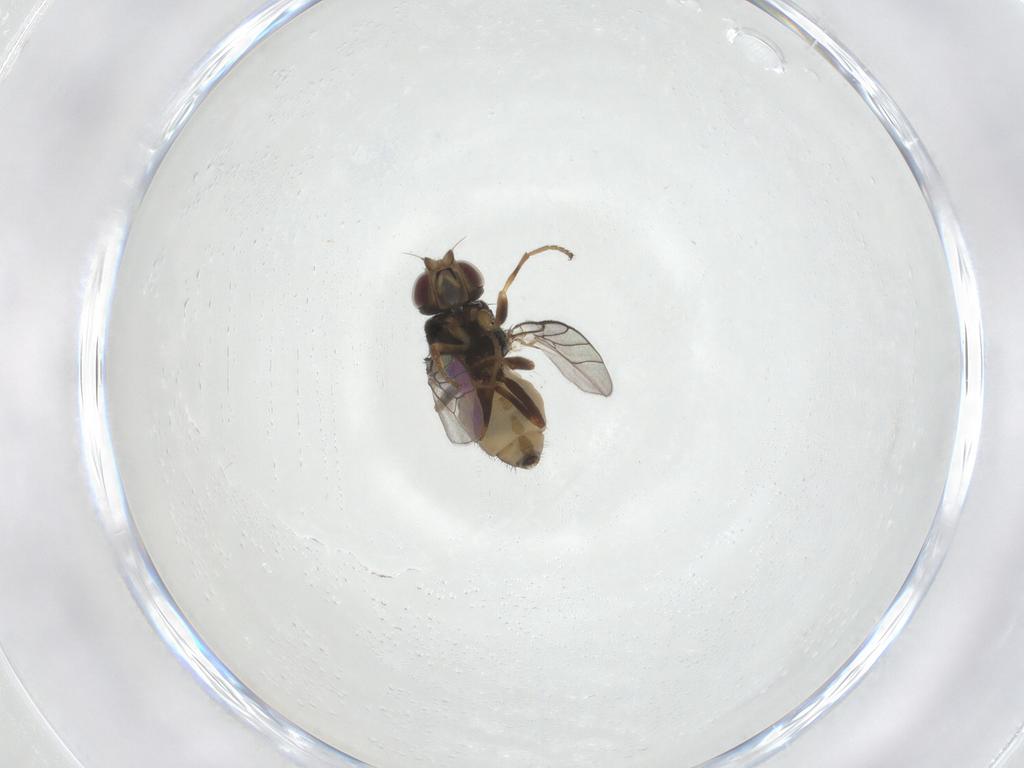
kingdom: Animalia
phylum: Arthropoda
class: Insecta
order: Diptera
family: Chloropidae
